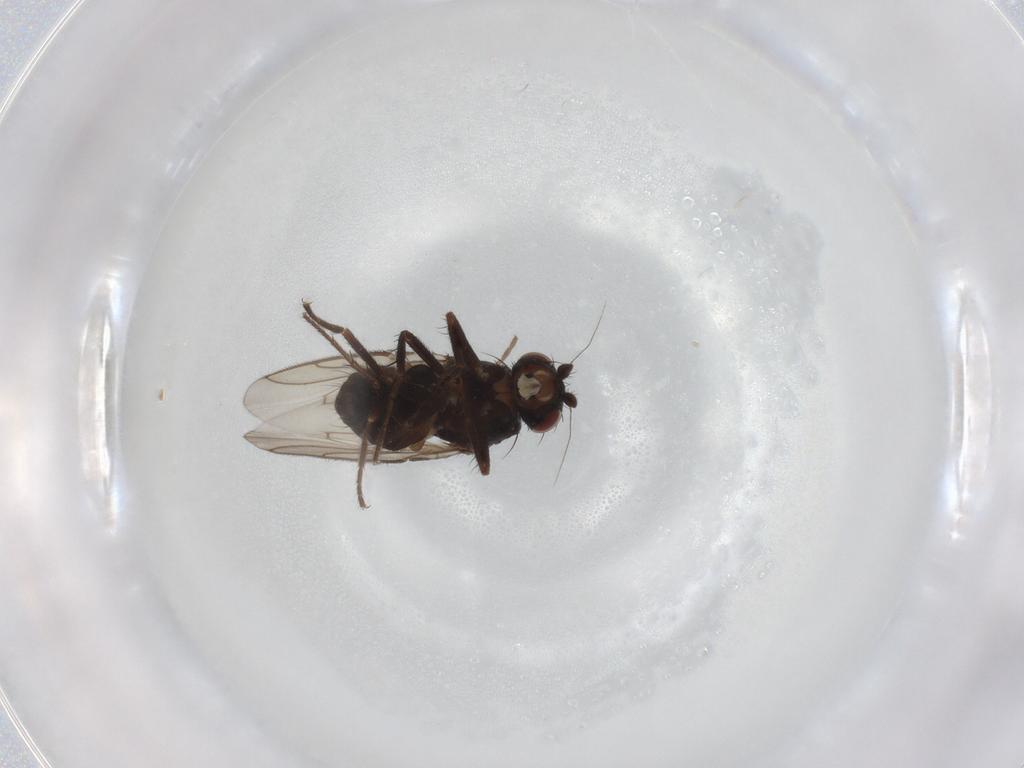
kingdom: Animalia
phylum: Arthropoda
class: Insecta
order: Diptera
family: Sphaeroceridae
